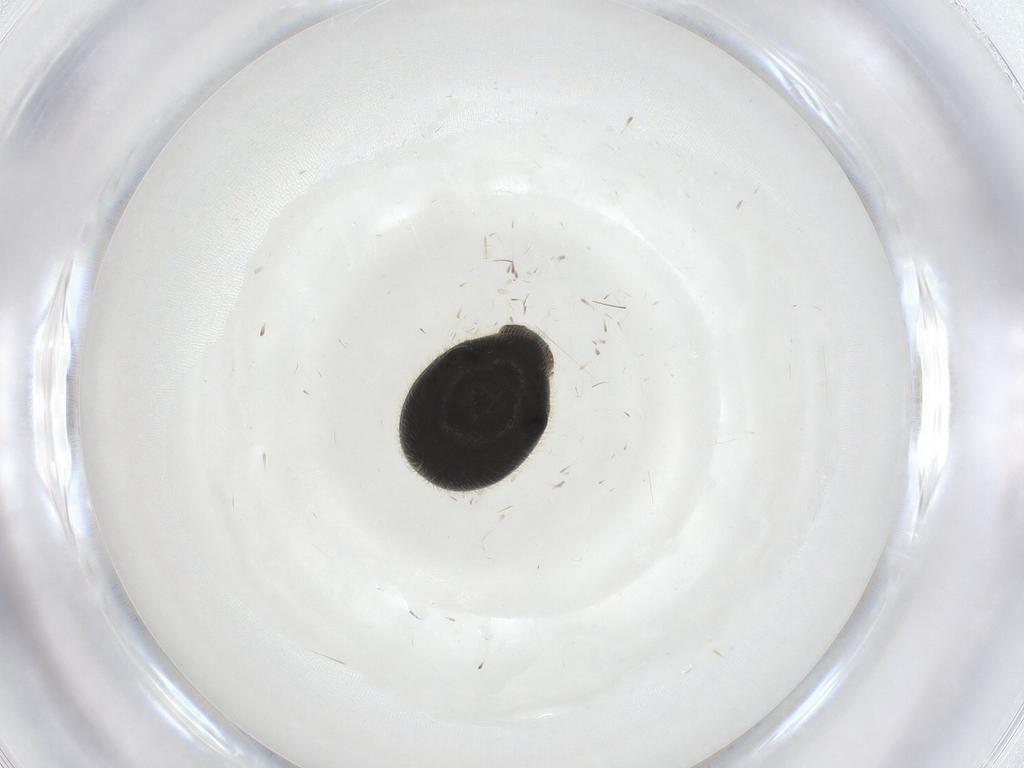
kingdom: Animalia
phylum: Arthropoda
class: Insecta
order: Coleoptera
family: Ptinidae
